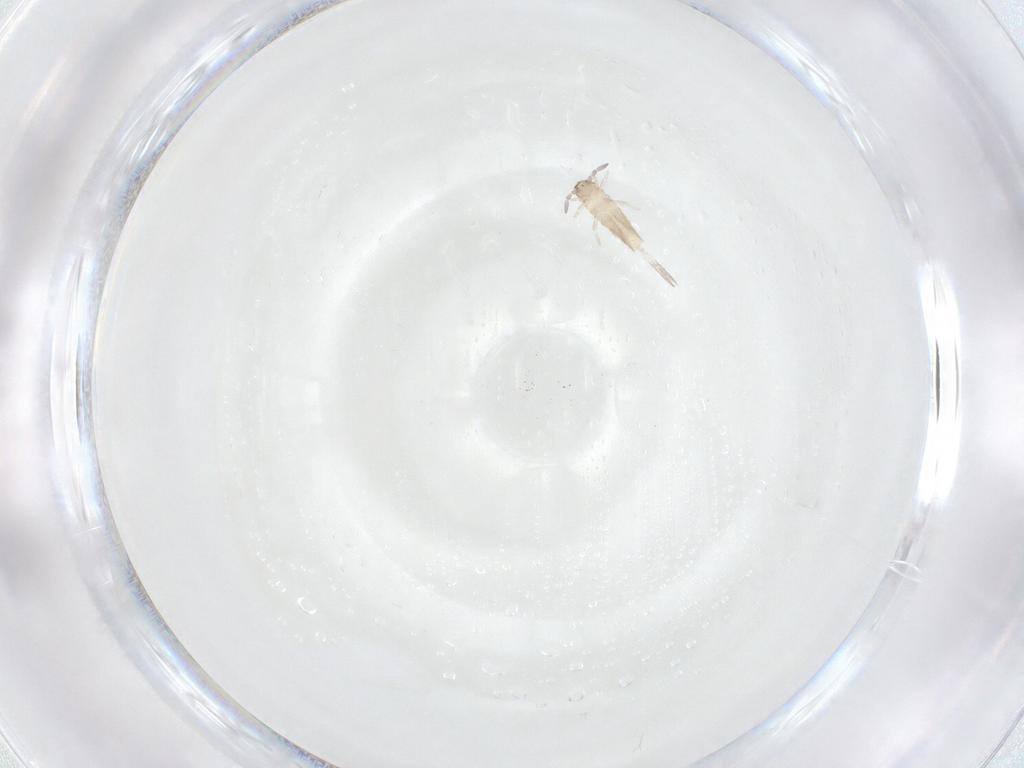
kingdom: Animalia
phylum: Arthropoda
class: Collembola
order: Entomobryomorpha
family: Entomobryidae
